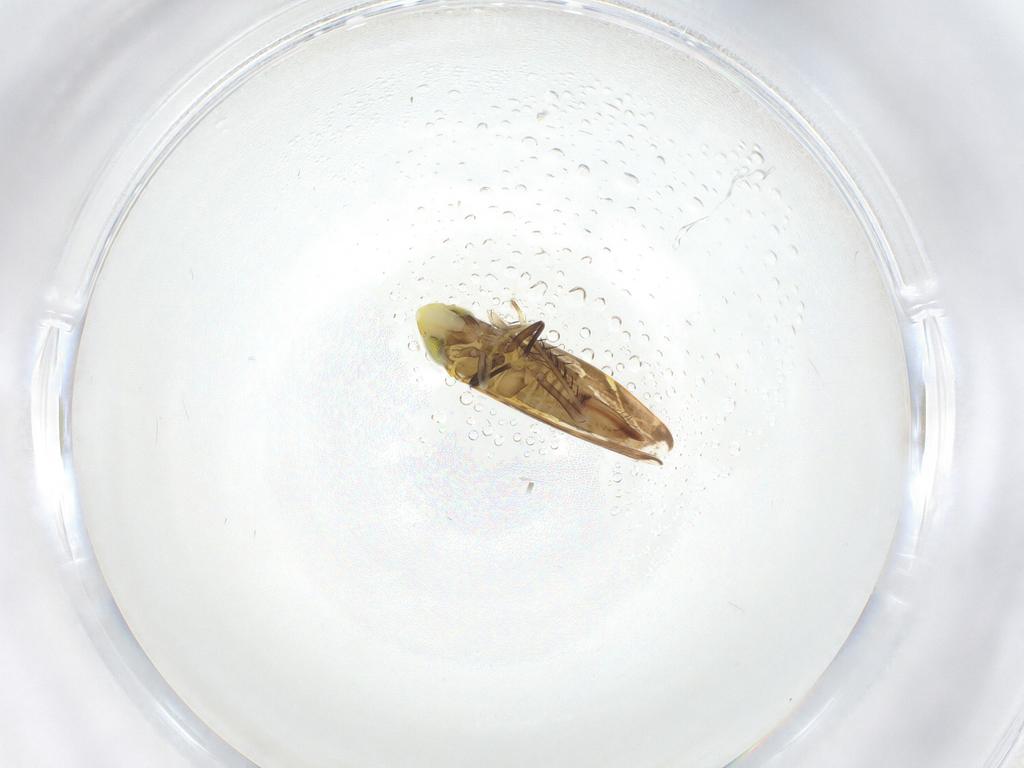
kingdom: Animalia
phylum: Arthropoda
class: Insecta
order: Hemiptera
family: Cicadellidae
